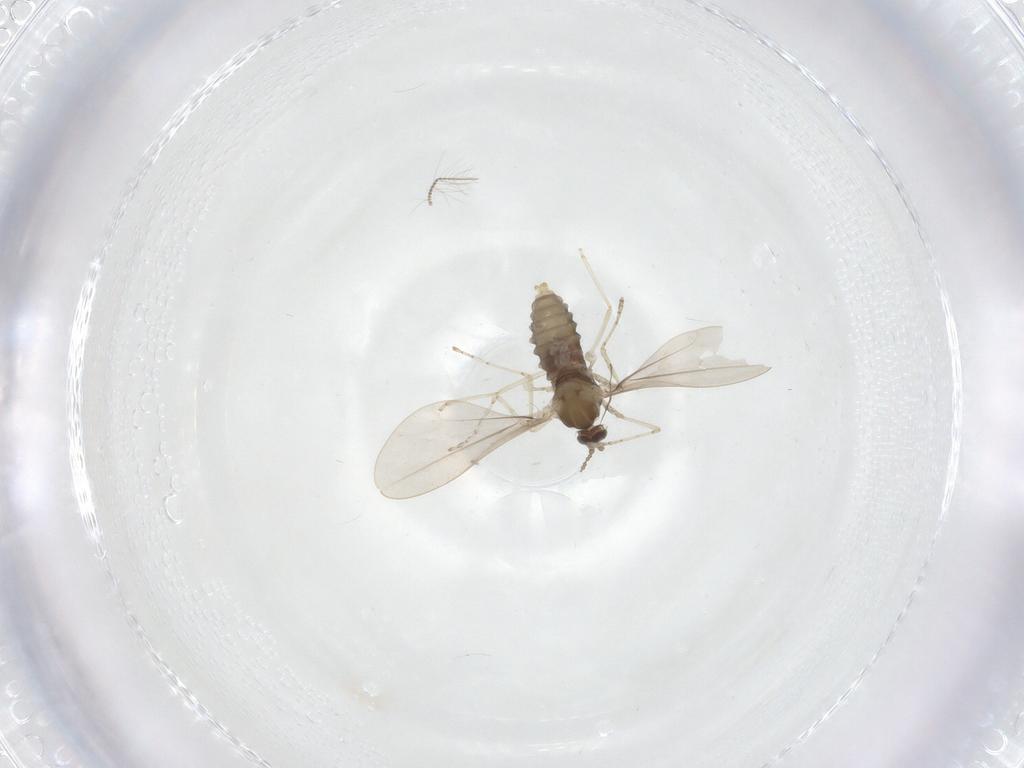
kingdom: Animalia
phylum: Arthropoda
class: Insecta
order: Diptera
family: Cecidomyiidae
